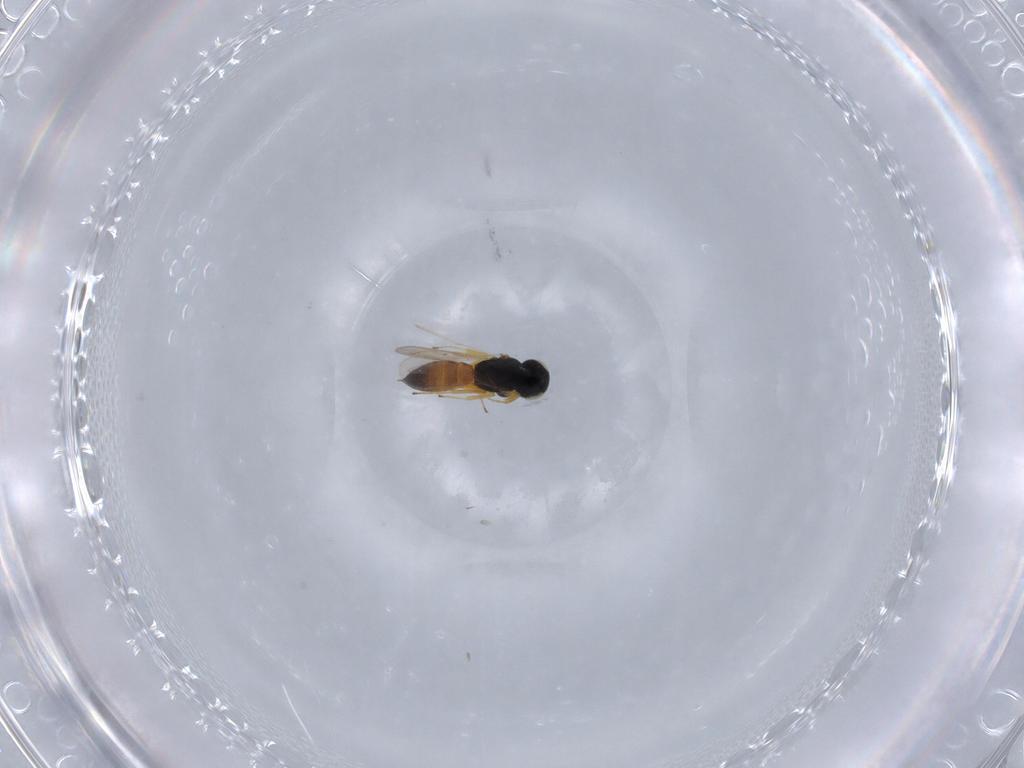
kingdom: Animalia
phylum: Arthropoda
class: Insecta
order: Hymenoptera
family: Scelionidae
